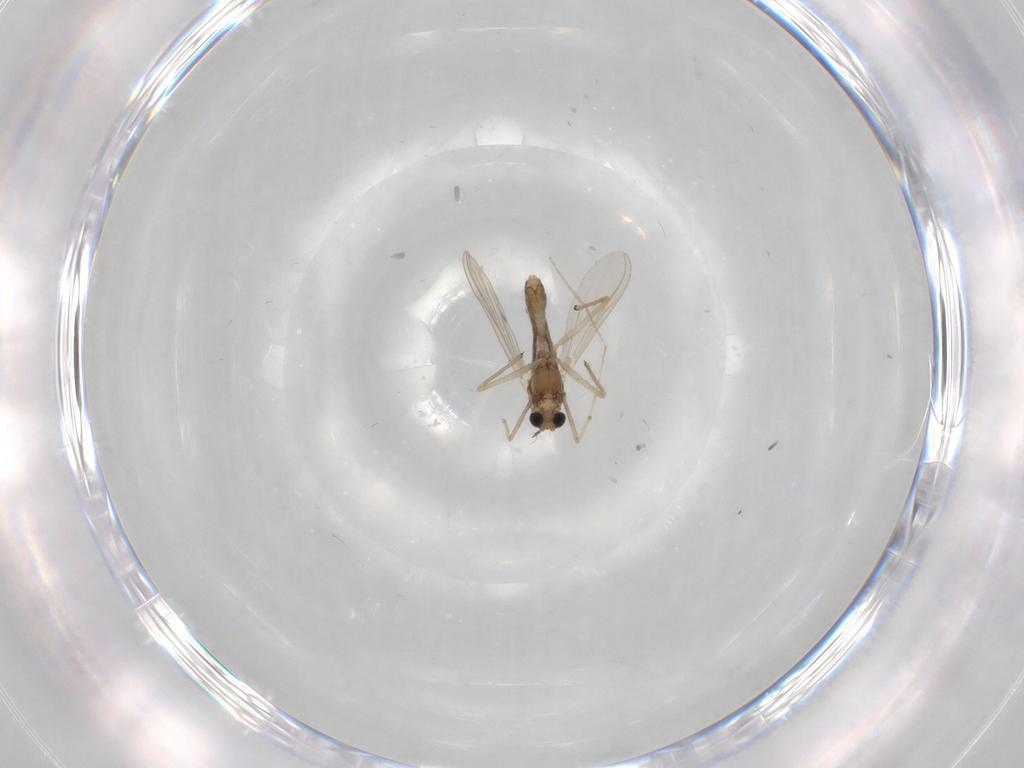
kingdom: Animalia
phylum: Arthropoda
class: Insecta
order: Diptera
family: Chironomidae
